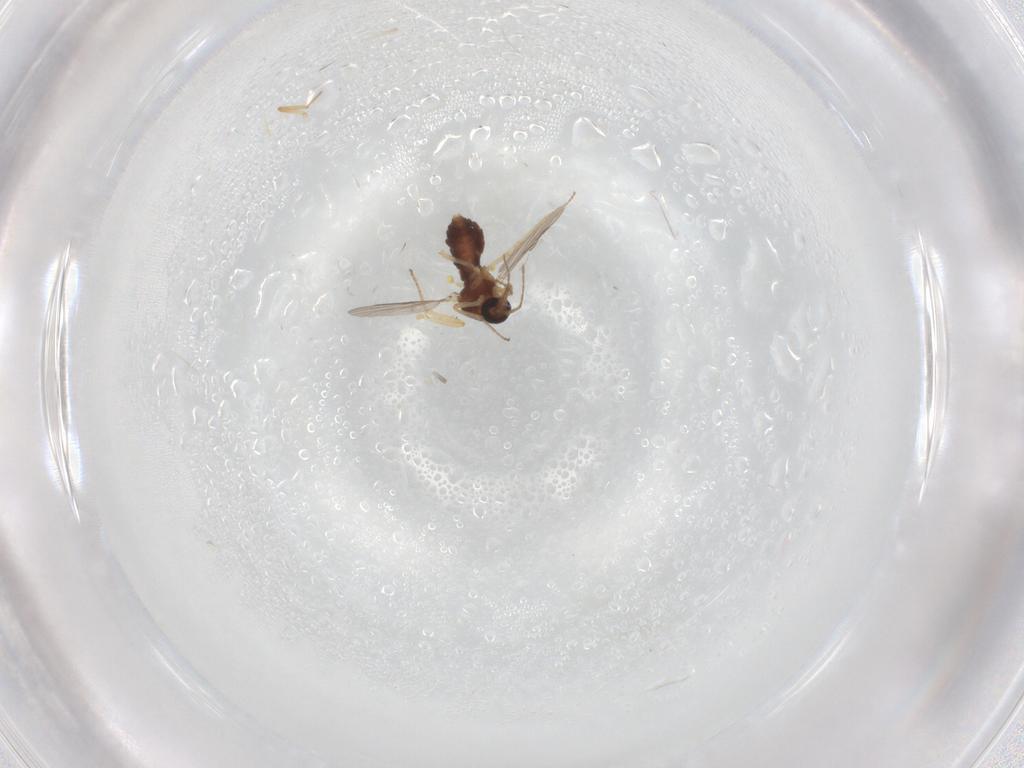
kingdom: Animalia
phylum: Arthropoda
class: Insecta
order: Diptera
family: Ceratopogonidae
